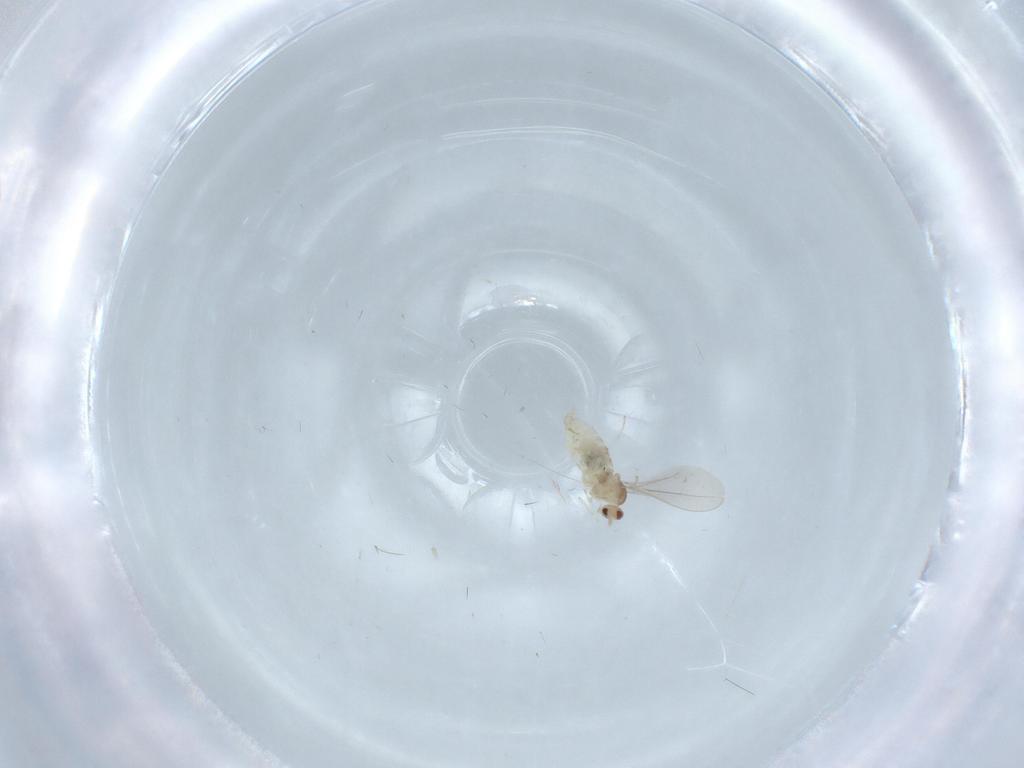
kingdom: Animalia
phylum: Arthropoda
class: Insecta
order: Diptera
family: Cecidomyiidae
